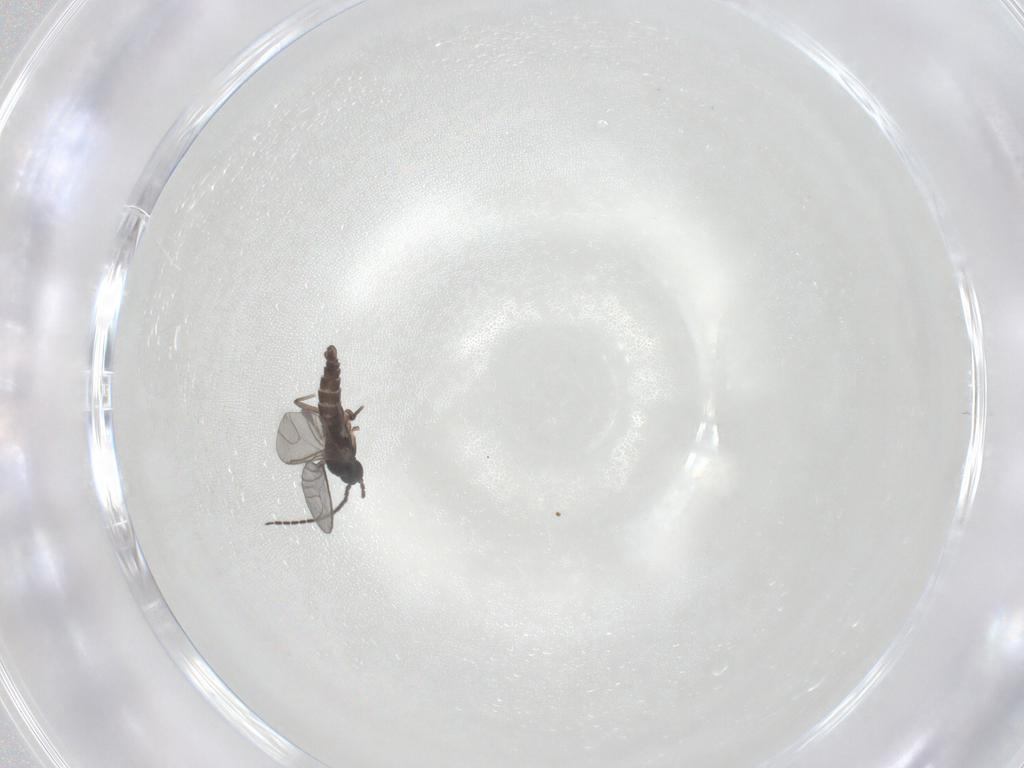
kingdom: Animalia
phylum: Arthropoda
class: Insecta
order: Diptera
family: Sciaridae
